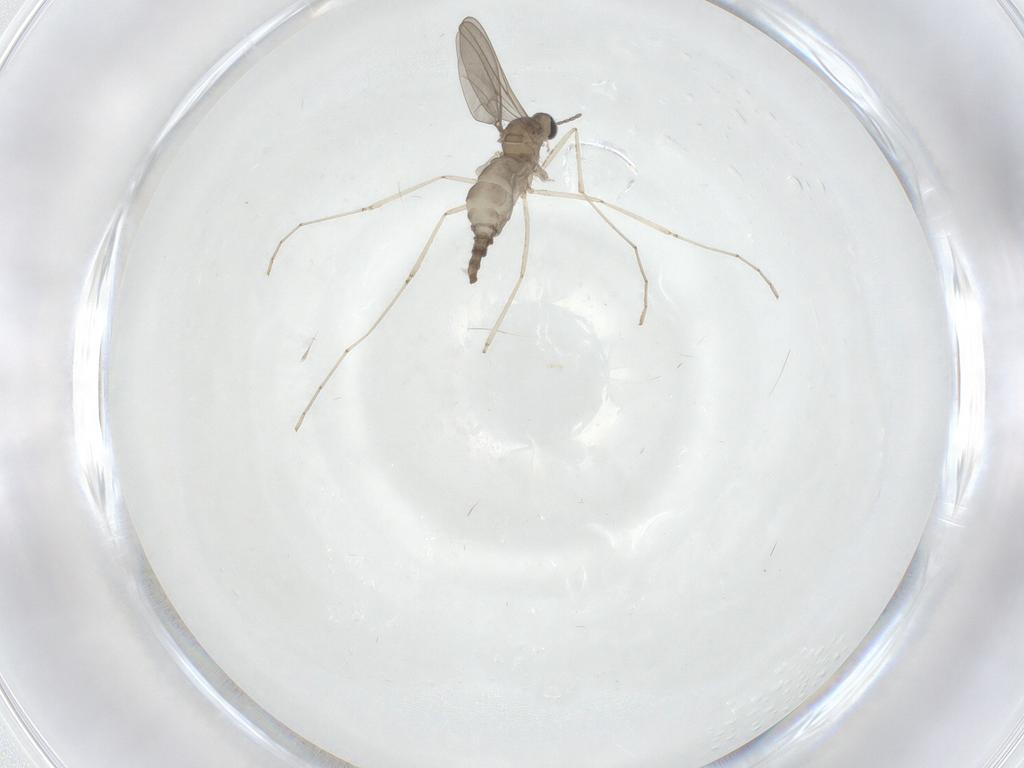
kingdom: Animalia
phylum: Arthropoda
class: Insecta
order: Diptera
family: Cecidomyiidae
